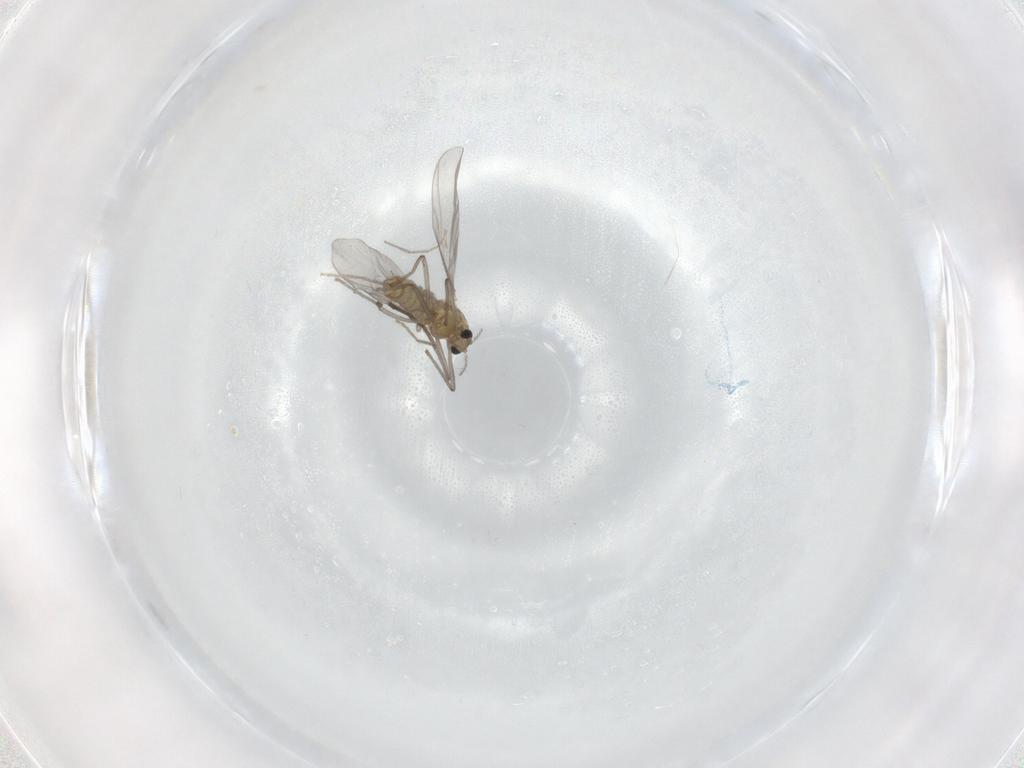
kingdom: Animalia
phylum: Arthropoda
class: Insecta
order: Diptera
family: Chironomidae
